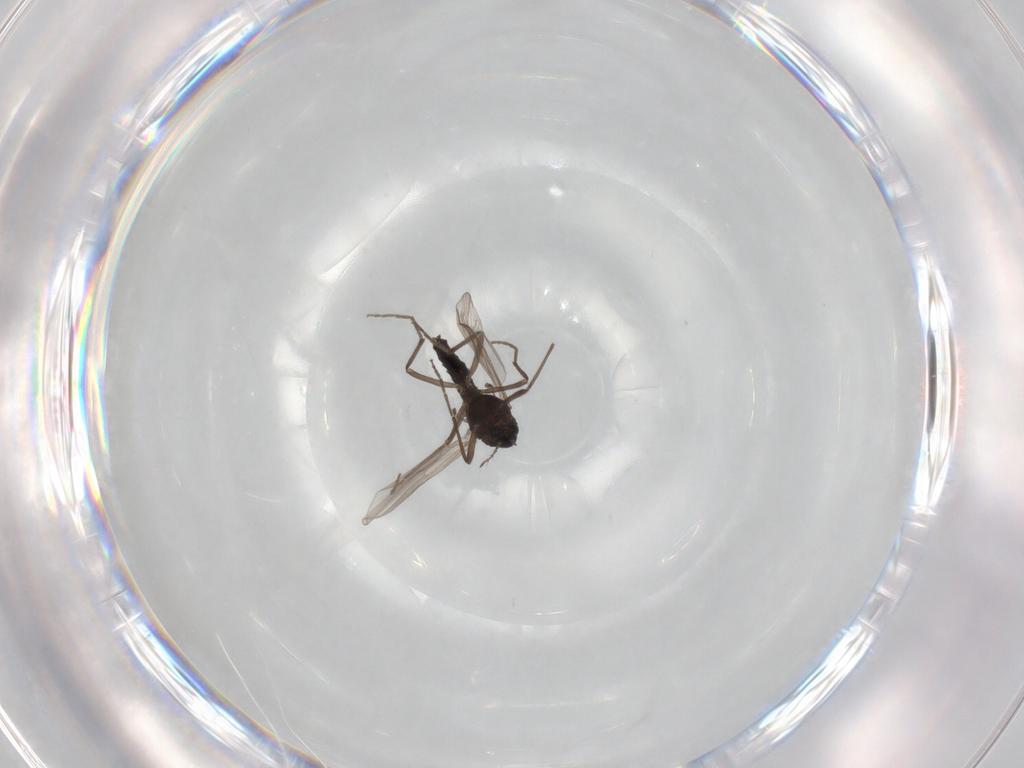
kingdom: Animalia
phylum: Arthropoda
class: Insecta
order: Diptera
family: Chironomidae
